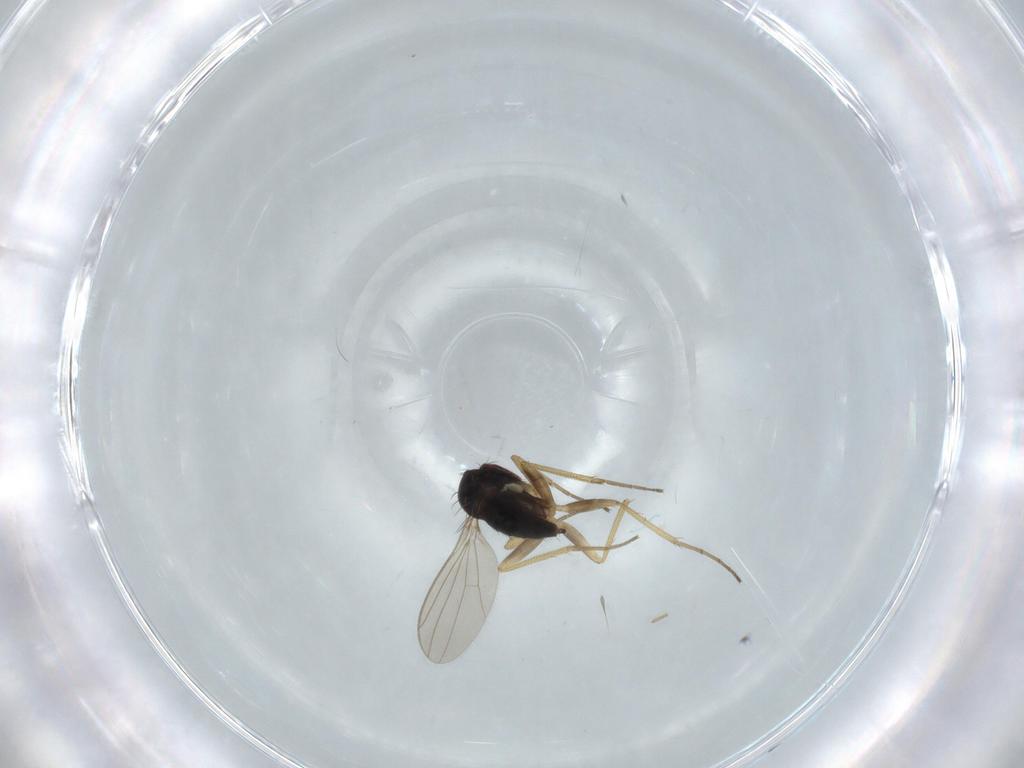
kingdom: Animalia
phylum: Arthropoda
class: Insecta
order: Diptera
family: Dolichopodidae
